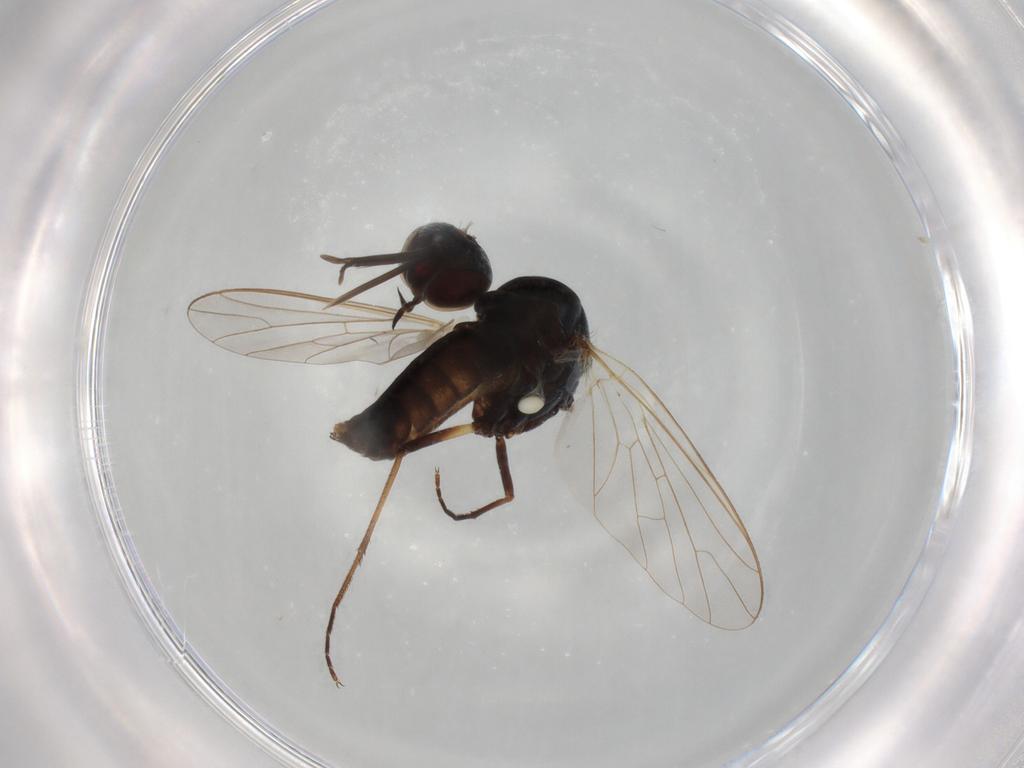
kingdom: Animalia
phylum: Arthropoda
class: Insecta
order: Diptera
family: Bombyliidae
